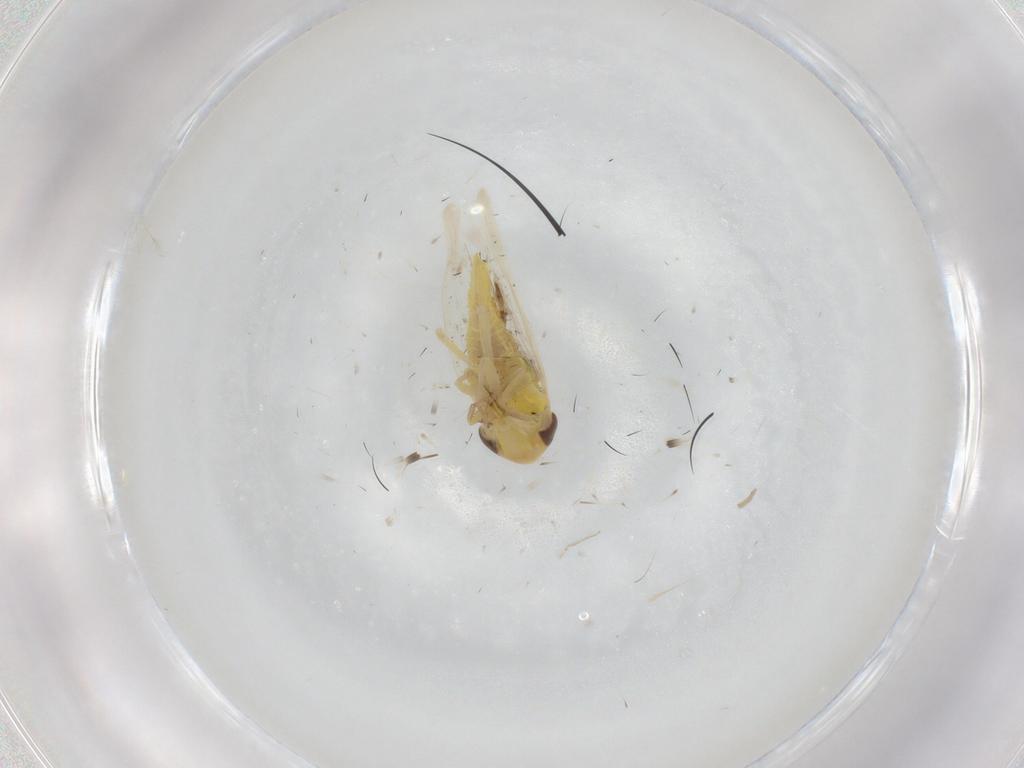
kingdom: Animalia
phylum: Arthropoda
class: Insecta
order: Hemiptera
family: Cicadellidae
